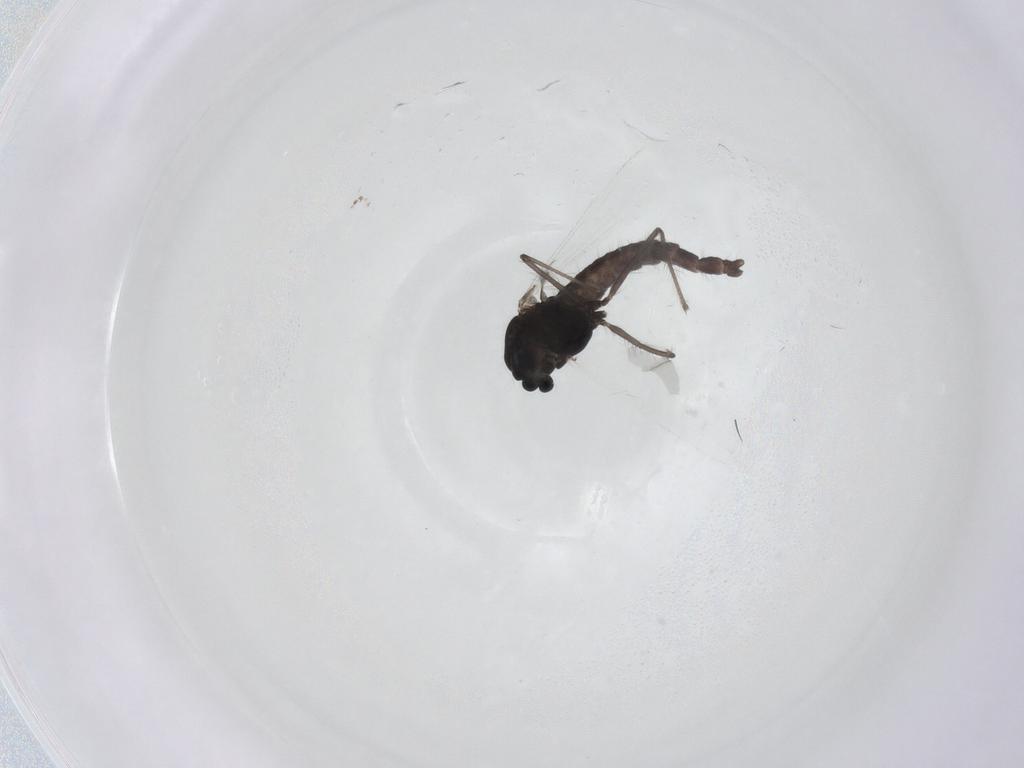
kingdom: Animalia
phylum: Arthropoda
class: Insecta
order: Diptera
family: Chironomidae
